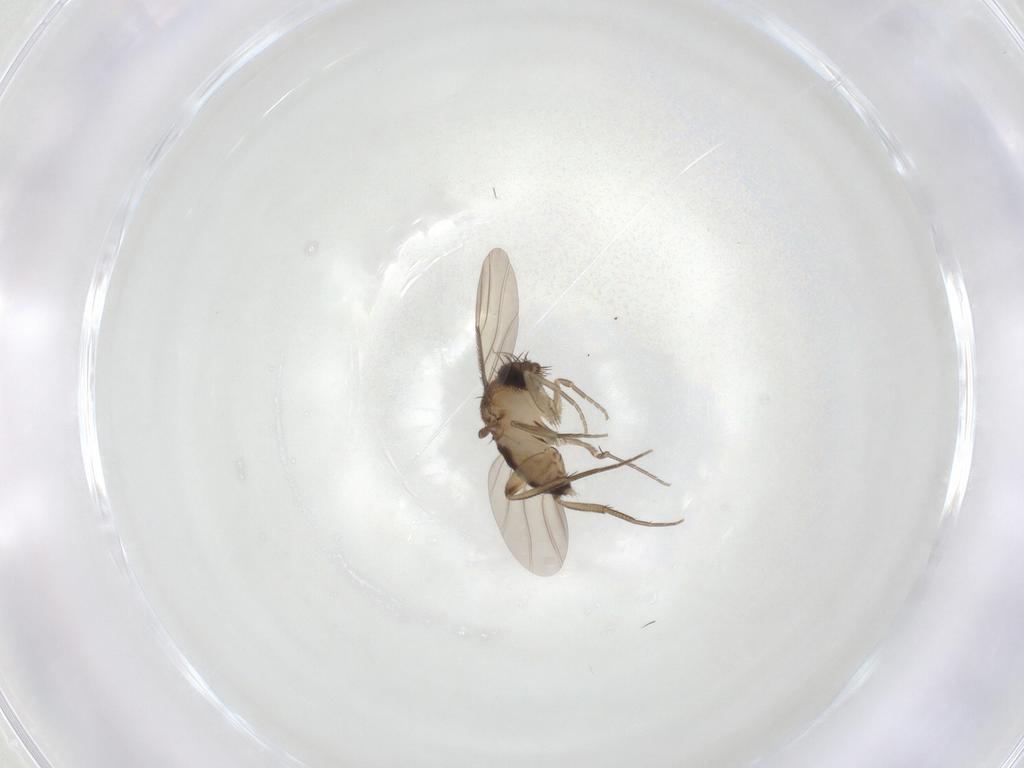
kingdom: Animalia
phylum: Arthropoda
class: Insecta
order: Diptera
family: Phoridae
